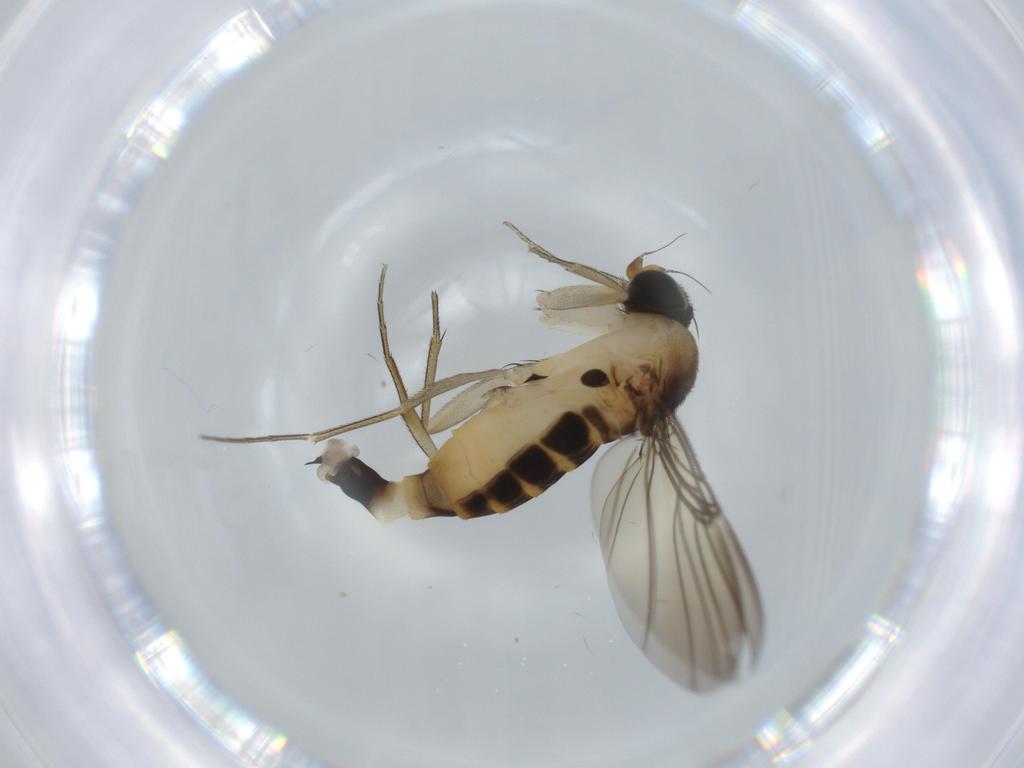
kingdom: Animalia
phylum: Arthropoda
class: Insecta
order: Diptera
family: Phoridae
